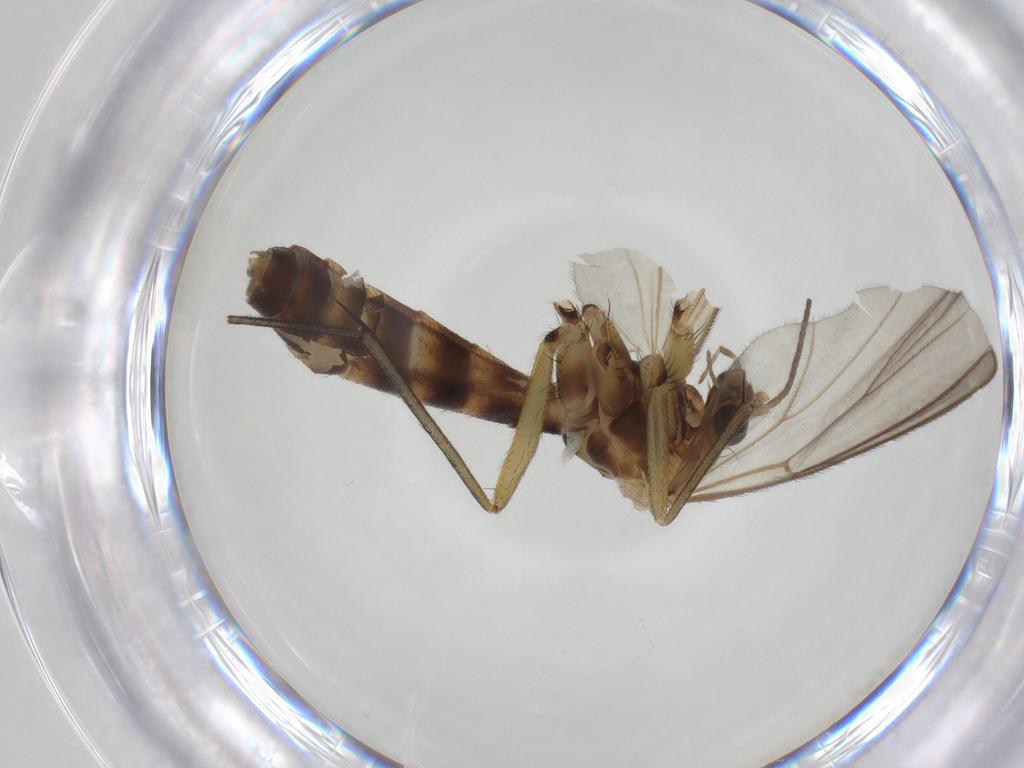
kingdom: Animalia
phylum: Arthropoda
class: Insecta
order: Diptera
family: Mycetophilidae
